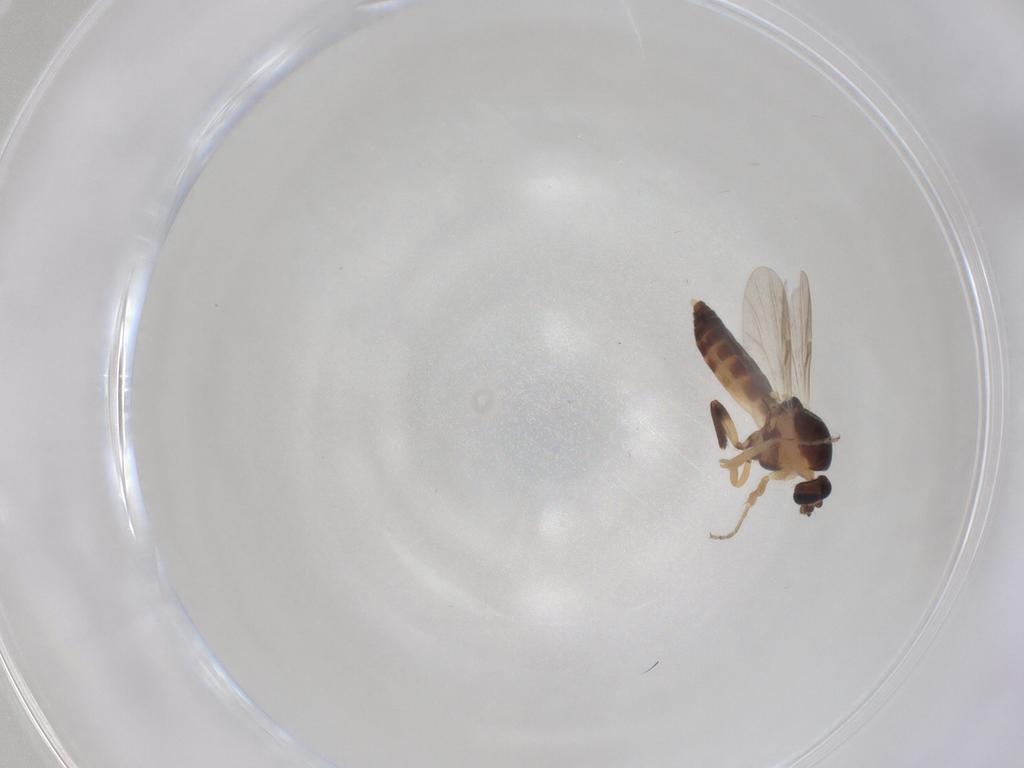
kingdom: Animalia
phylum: Arthropoda
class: Insecta
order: Diptera
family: Ceratopogonidae
